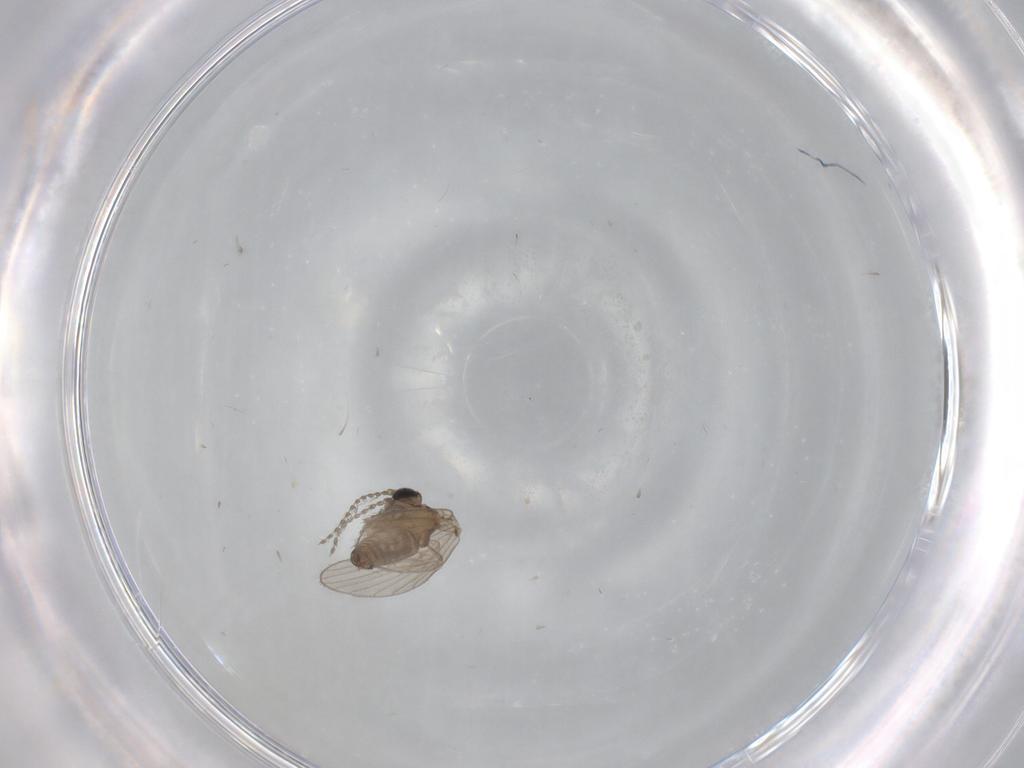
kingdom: Animalia
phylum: Arthropoda
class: Insecta
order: Diptera
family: Psychodidae
